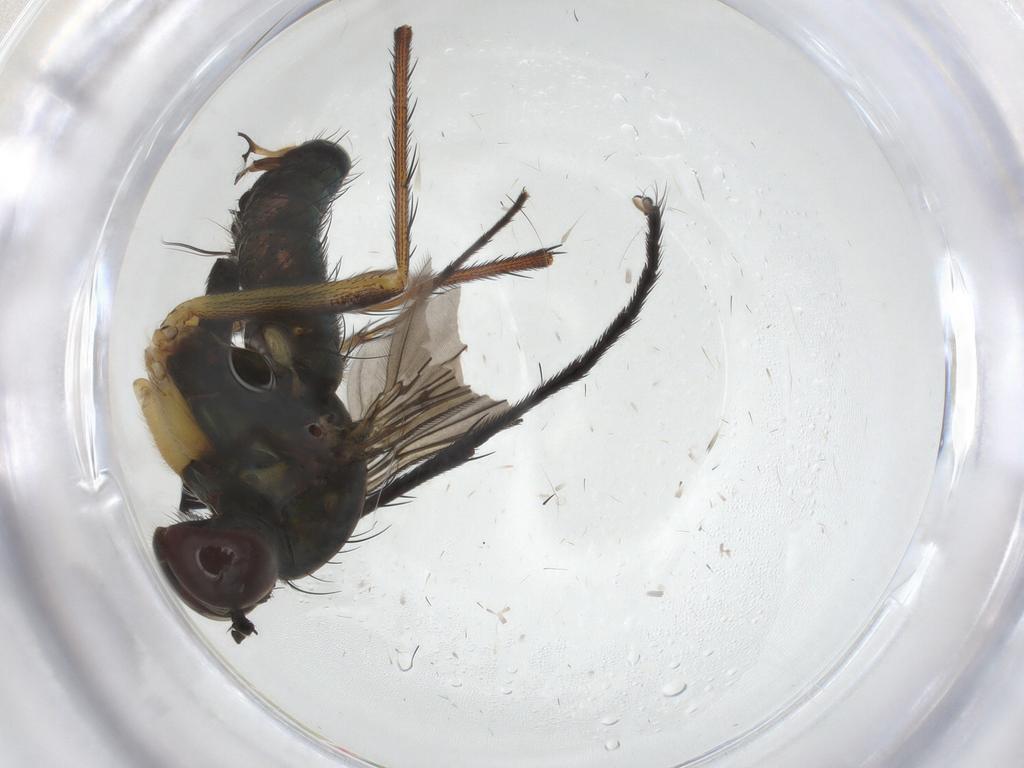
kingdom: Animalia
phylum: Arthropoda
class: Insecta
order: Diptera
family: Dolichopodidae
